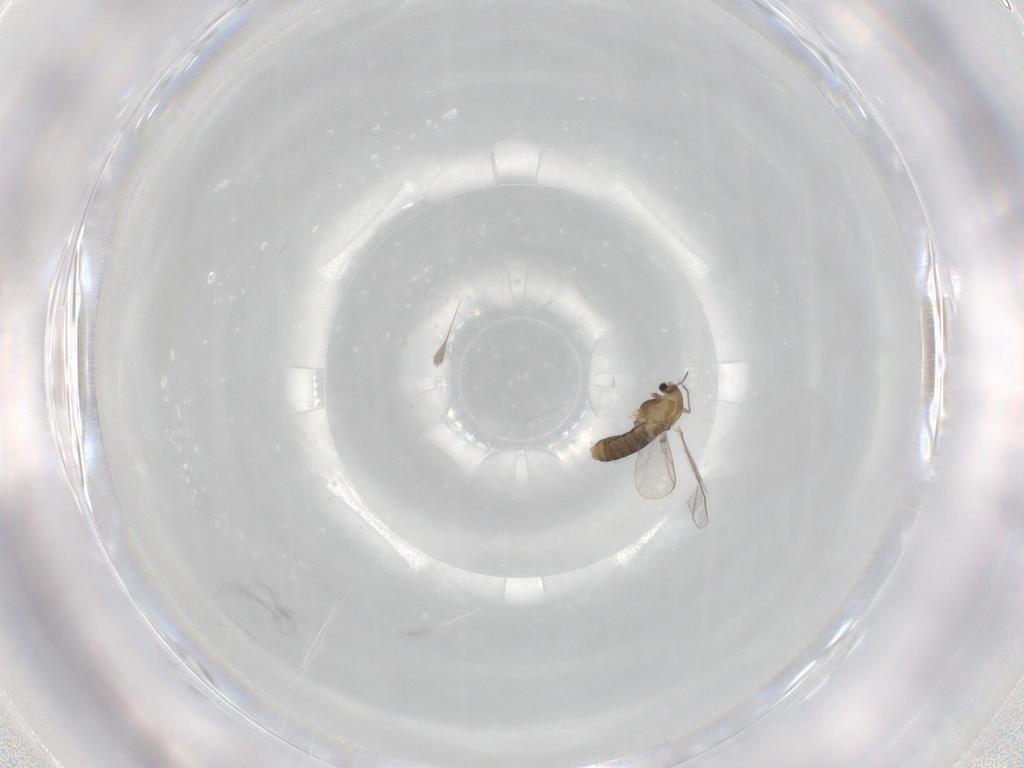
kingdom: Animalia
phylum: Arthropoda
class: Insecta
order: Diptera
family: Chironomidae
